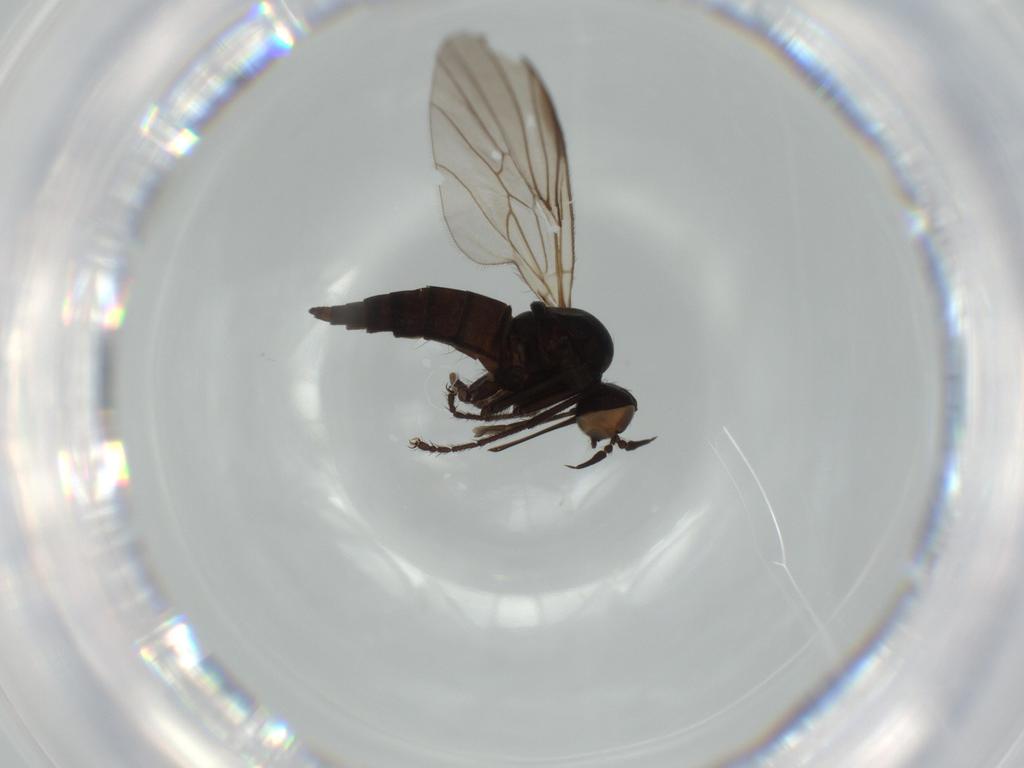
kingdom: Animalia
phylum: Arthropoda
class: Insecta
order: Diptera
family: Empididae
